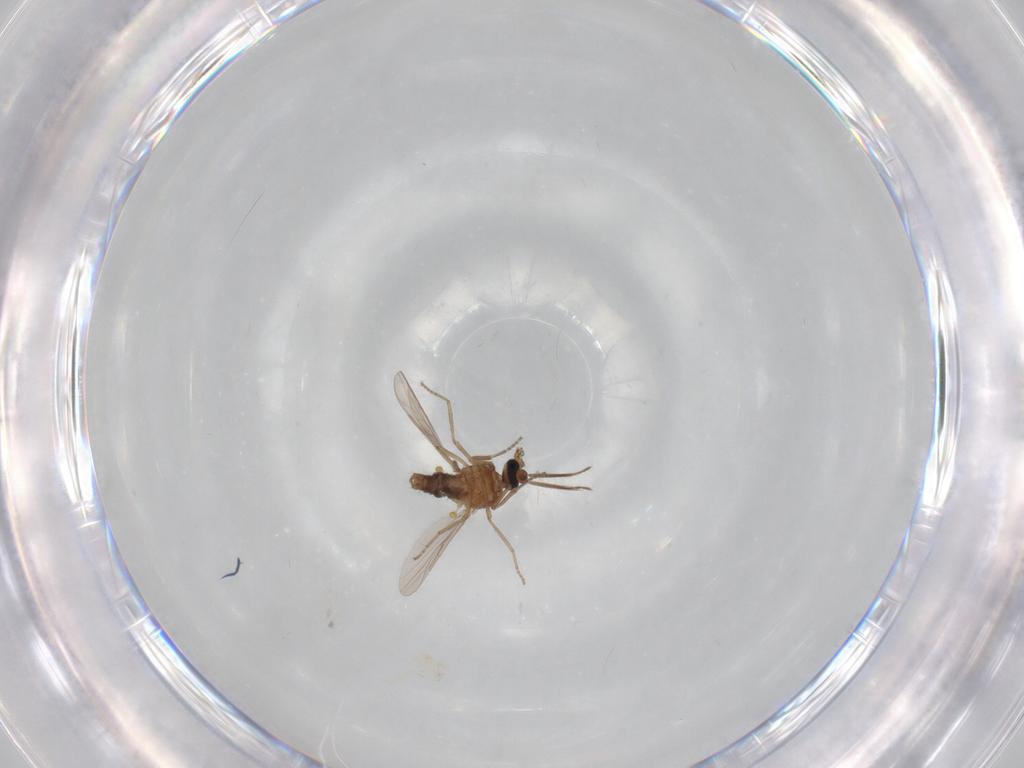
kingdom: Animalia
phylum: Arthropoda
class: Insecta
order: Diptera
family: Ceratopogonidae
